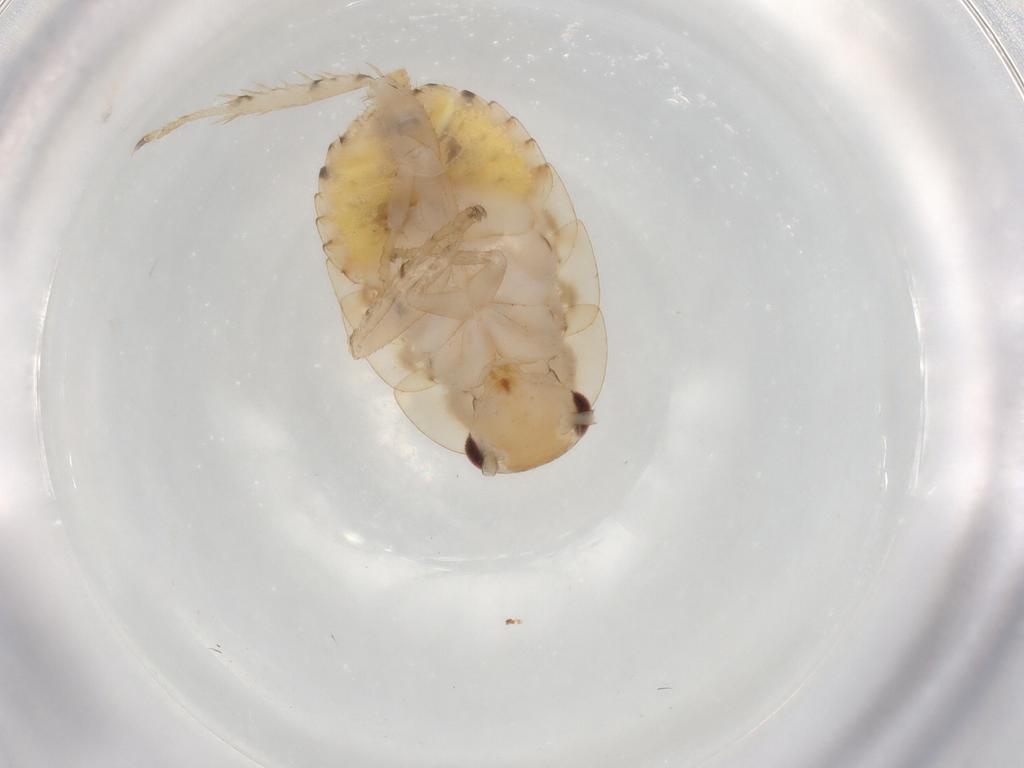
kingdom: Animalia
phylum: Arthropoda
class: Insecta
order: Blattodea
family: Ectobiidae
